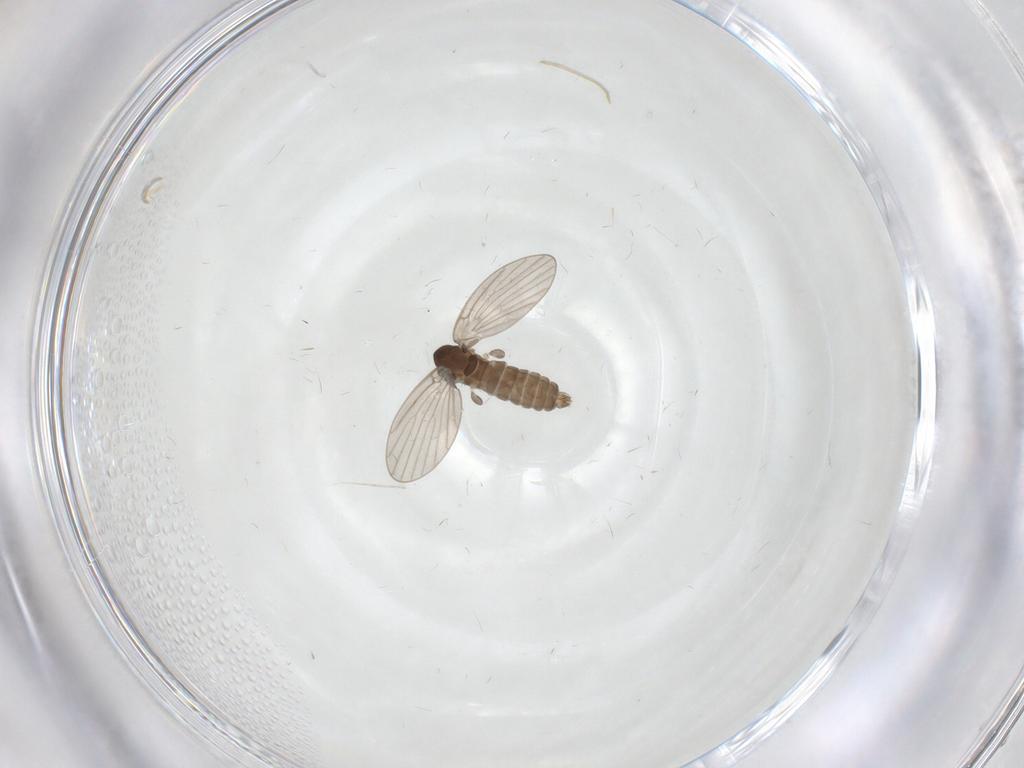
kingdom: Animalia
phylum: Arthropoda
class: Insecta
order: Diptera
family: Psychodidae
